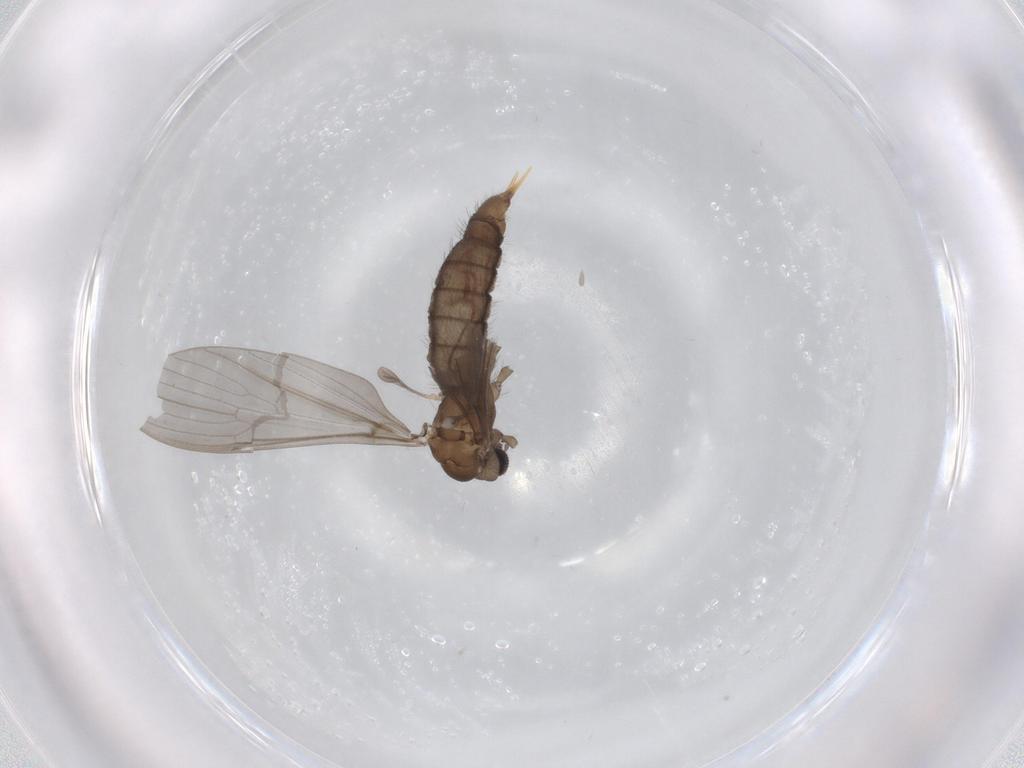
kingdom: Animalia
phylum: Arthropoda
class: Insecta
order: Diptera
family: Limoniidae
